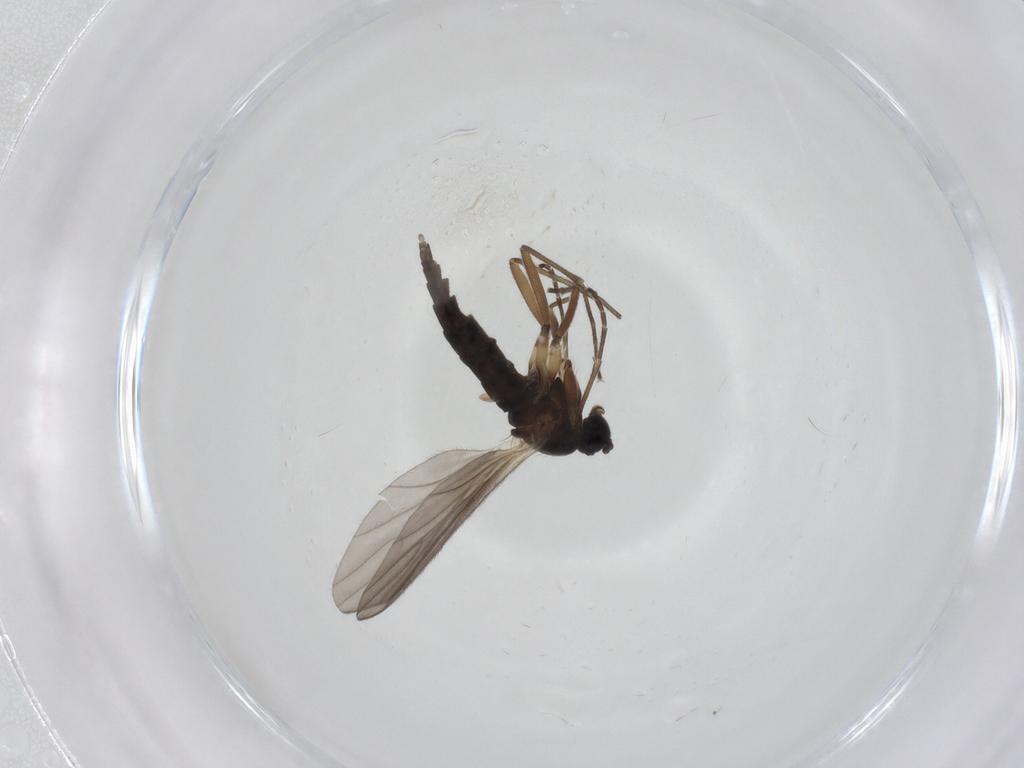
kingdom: Animalia
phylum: Arthropoda
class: Insecta
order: Diptera
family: Sciaridae
